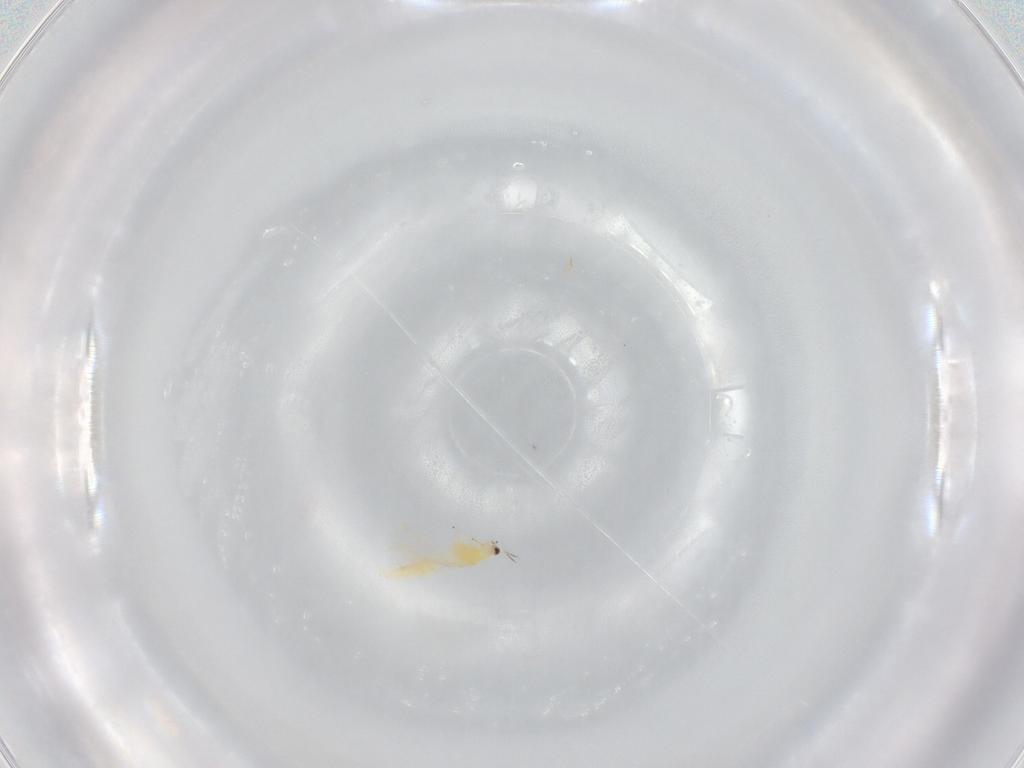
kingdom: Animalia
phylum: Arthropoda
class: Insecta
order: Thysanoptera
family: Thripidae
